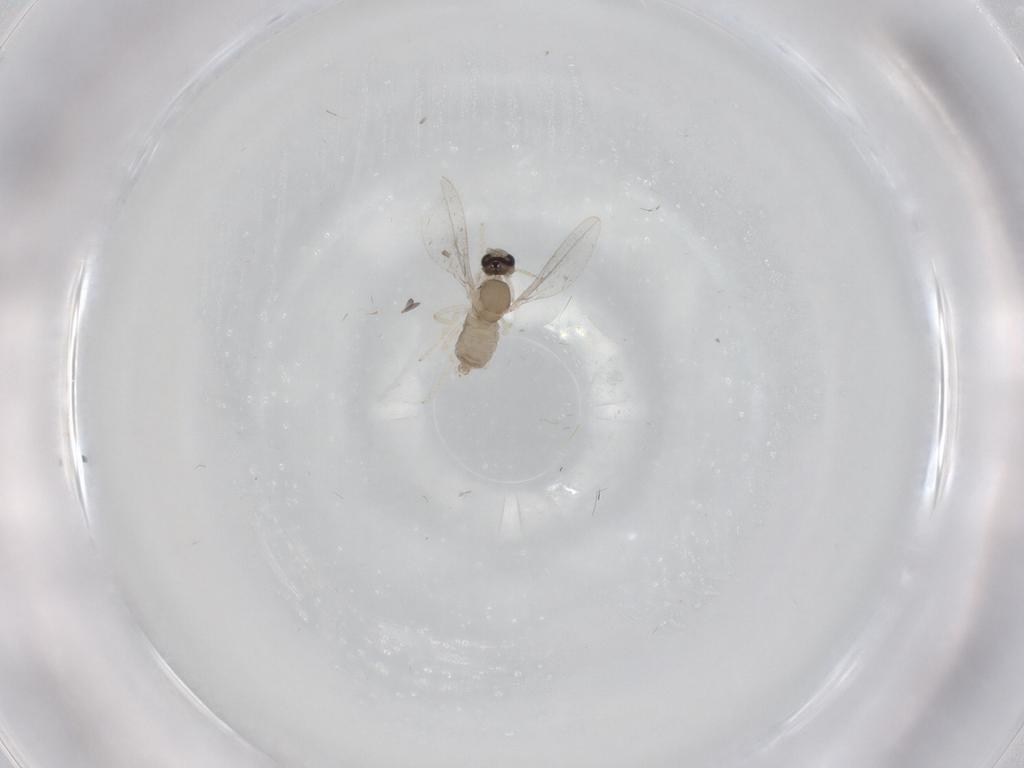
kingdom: Animalia
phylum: Arthropoda
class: Insecta
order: Diptera
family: Cecidomyiidae
